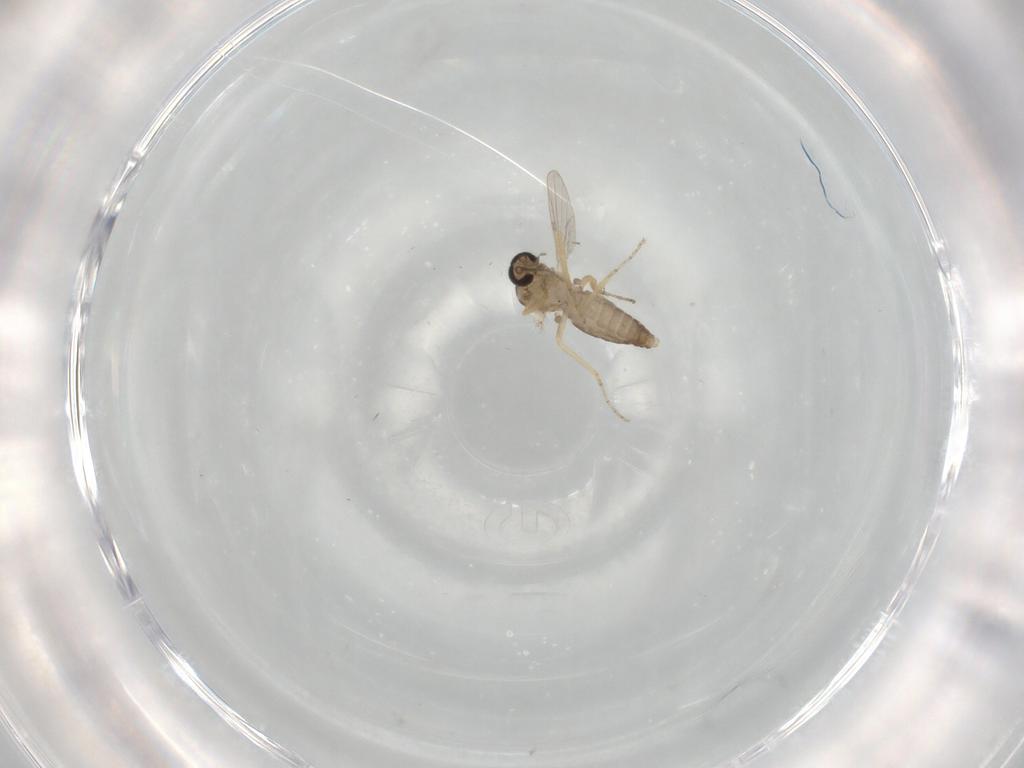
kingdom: Animalia
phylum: Arthropoda
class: Insecta
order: Diptera
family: Ceratopogonidae
